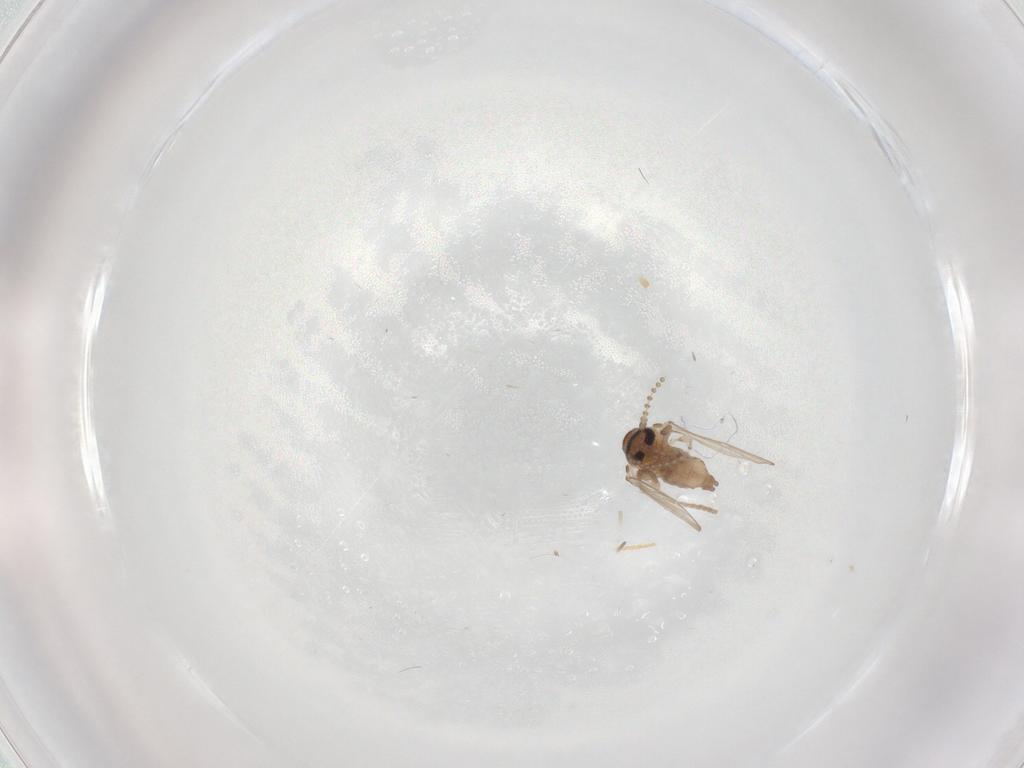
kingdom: Animalia
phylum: Arthropoda
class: Insecta
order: Diptera
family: Psychodidae
